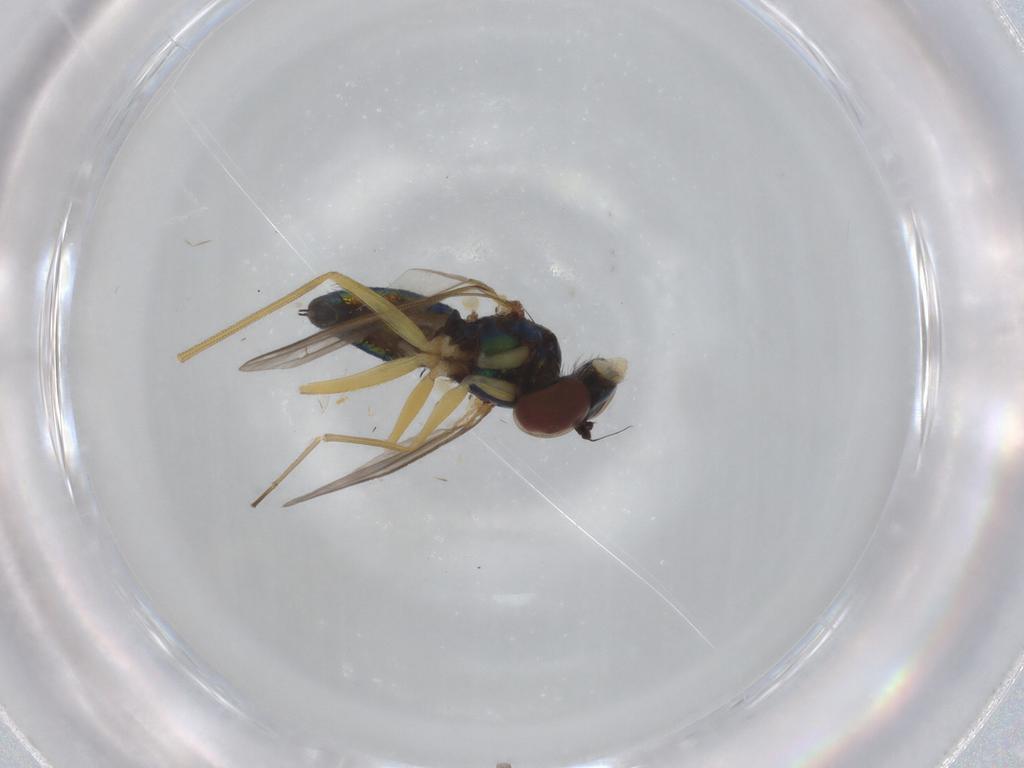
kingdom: Animalia
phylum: Arthropoda
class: Insecta
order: Diptera
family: Dolichopodidae
